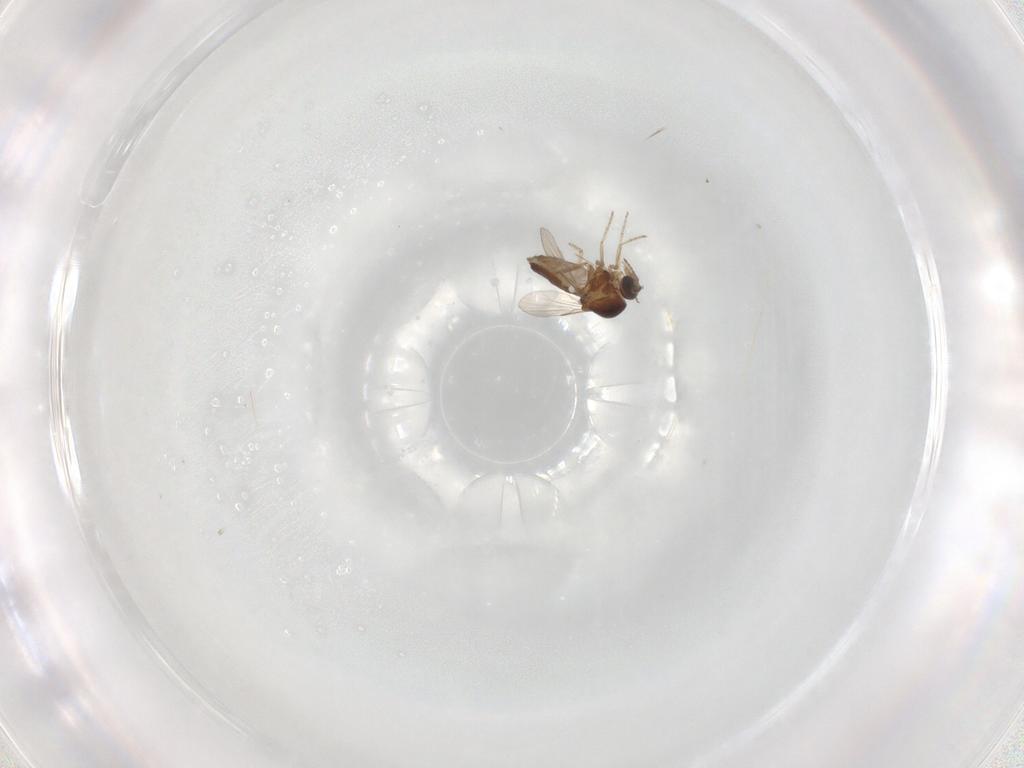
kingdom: Animalia
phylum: Arthropoda
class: Insecta
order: Diptera
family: Ceratopogonidae
